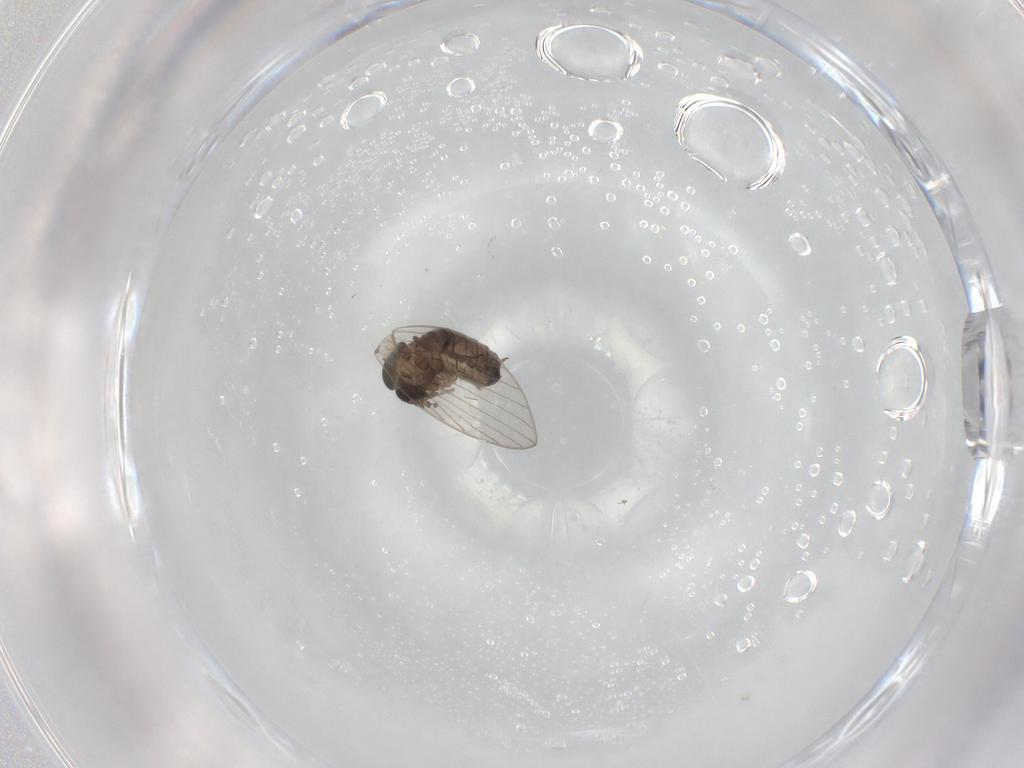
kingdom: Animalia
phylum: Arthropoda
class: Insecta
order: Diptera
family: Psychodidae
